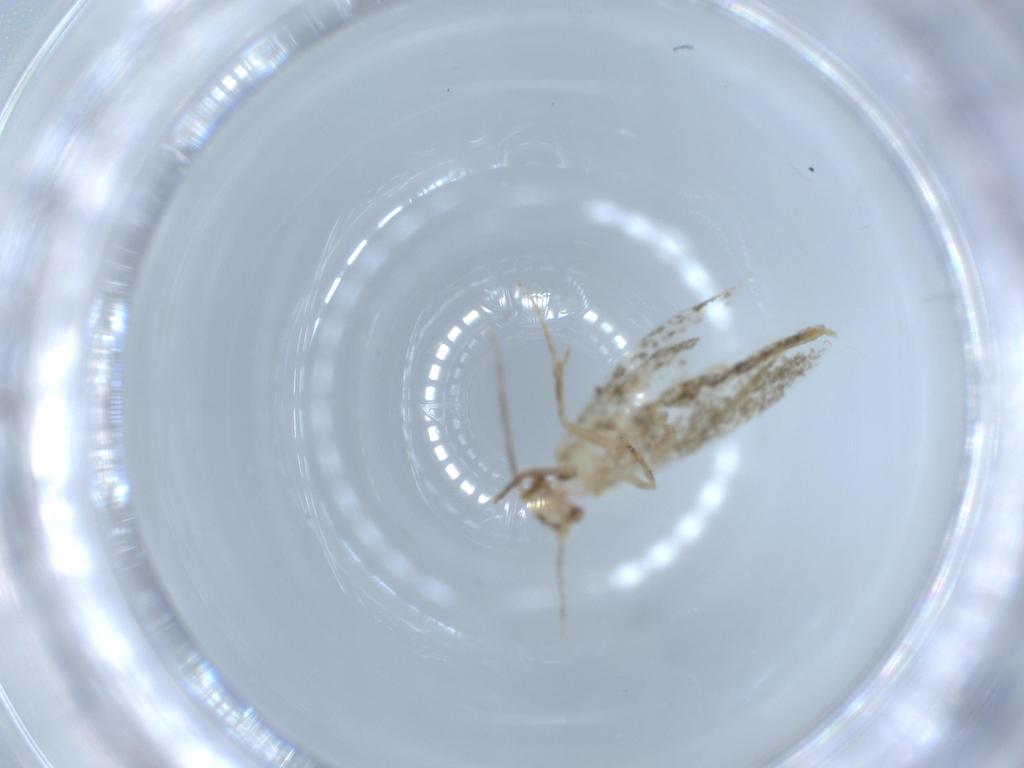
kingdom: Animalia
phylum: Arthropoda
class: Insecta
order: Lepidoptera
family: Tineidae
